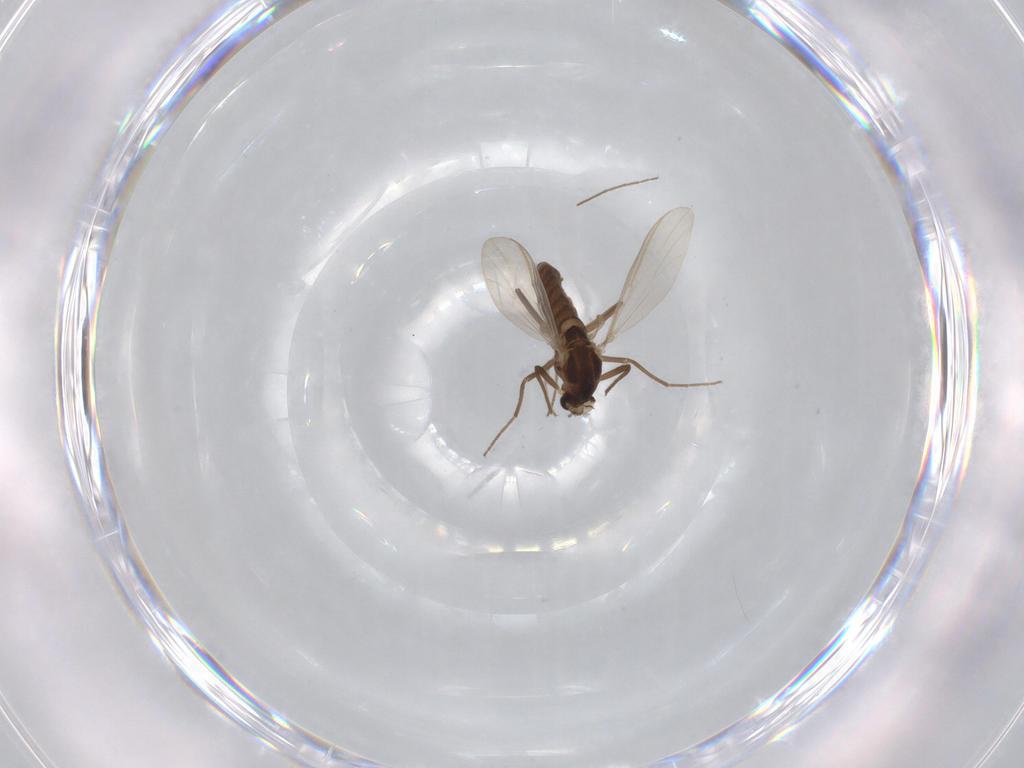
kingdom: Animalia
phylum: Arthropoda
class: Insecta
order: Diptera
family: Chironomidae
